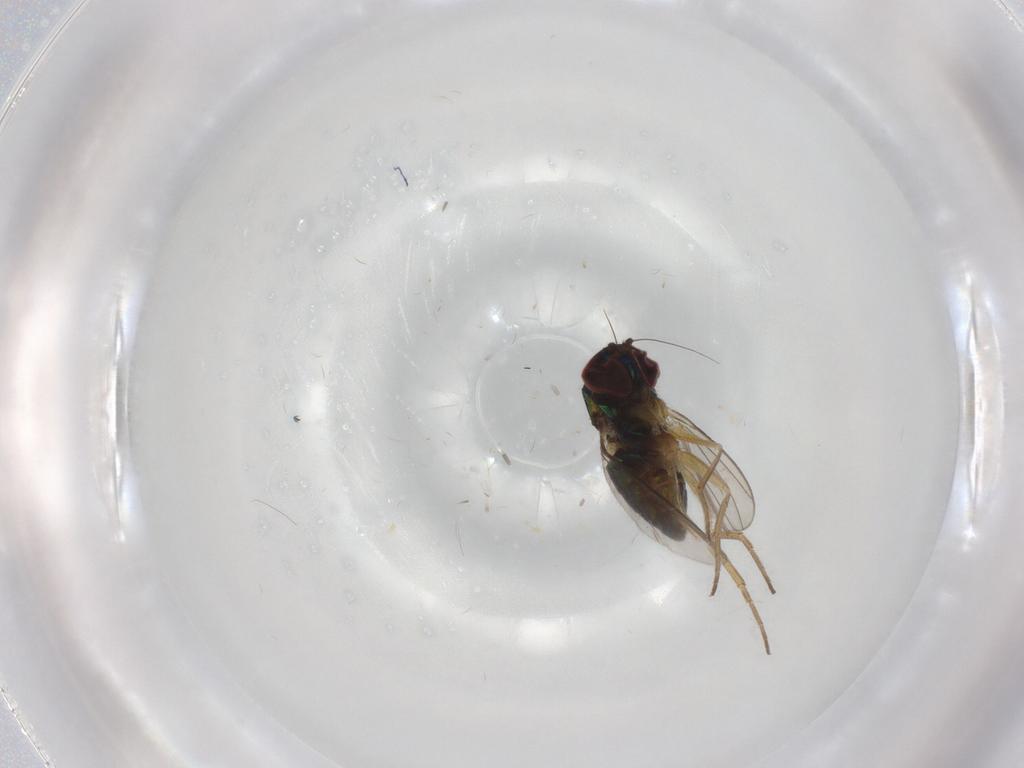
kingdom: Animalia
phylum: Arthropoda
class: Insecta
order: Diptera
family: Dolichopodidae
